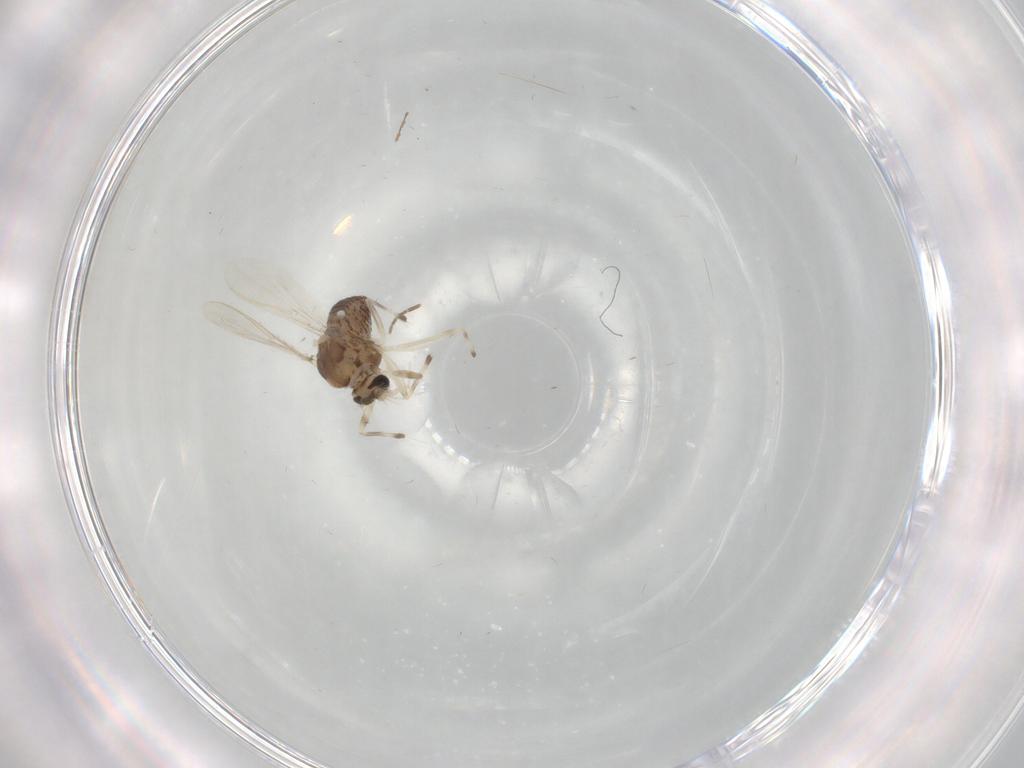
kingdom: Animalia
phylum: Arthropoda
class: Insecta
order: Diptera
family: Chironomidae
